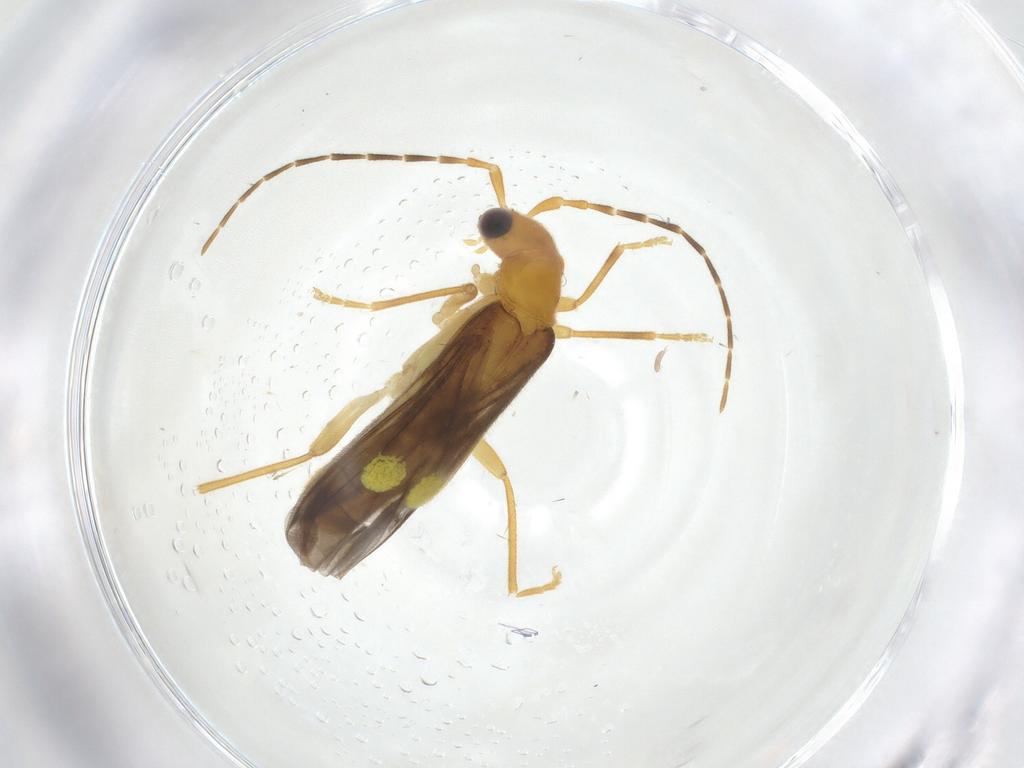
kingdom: Animalia
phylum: Arthropoda
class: Insecta
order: Coleoptera
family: Cantharidae
